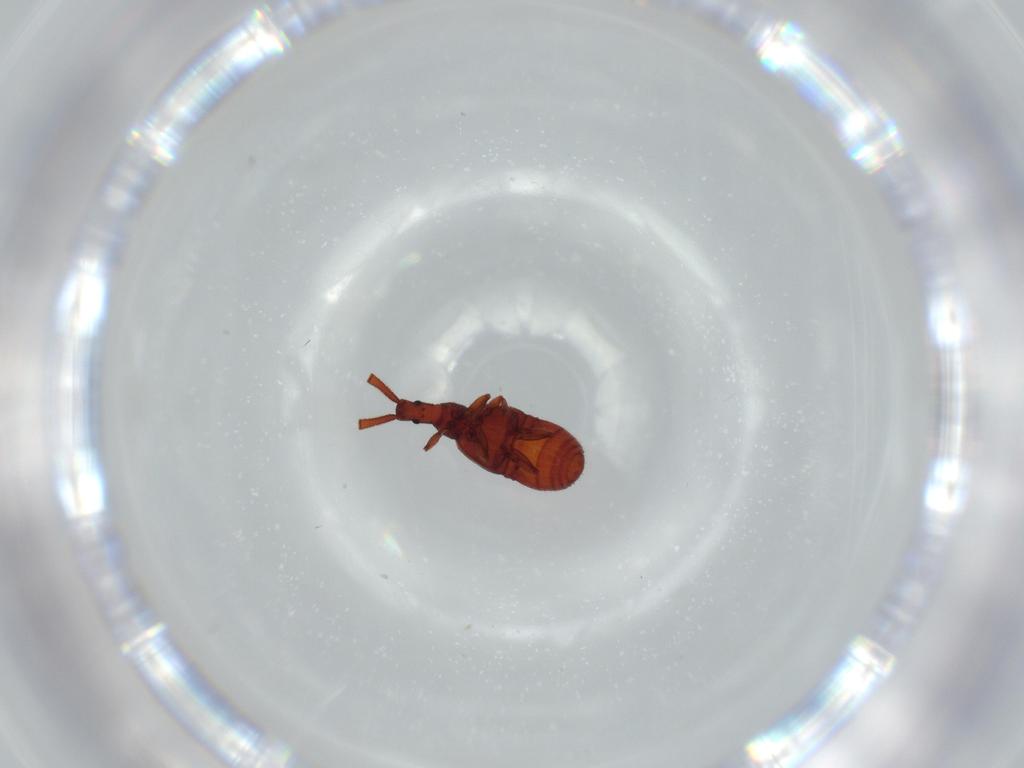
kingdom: Animalia
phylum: Arthropoda
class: Insecta
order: Coleoptera
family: Staphylinidae
